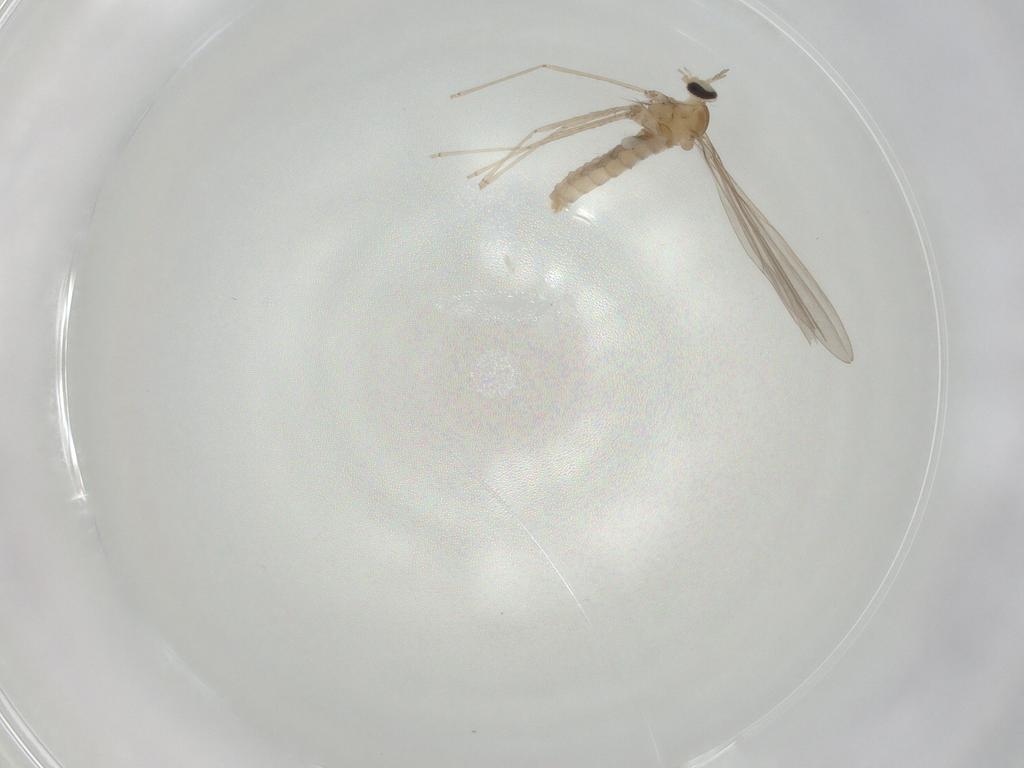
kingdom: Animalia
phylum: Arthropoda
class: Insecta
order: Diptera
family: Cecidomyiidae
